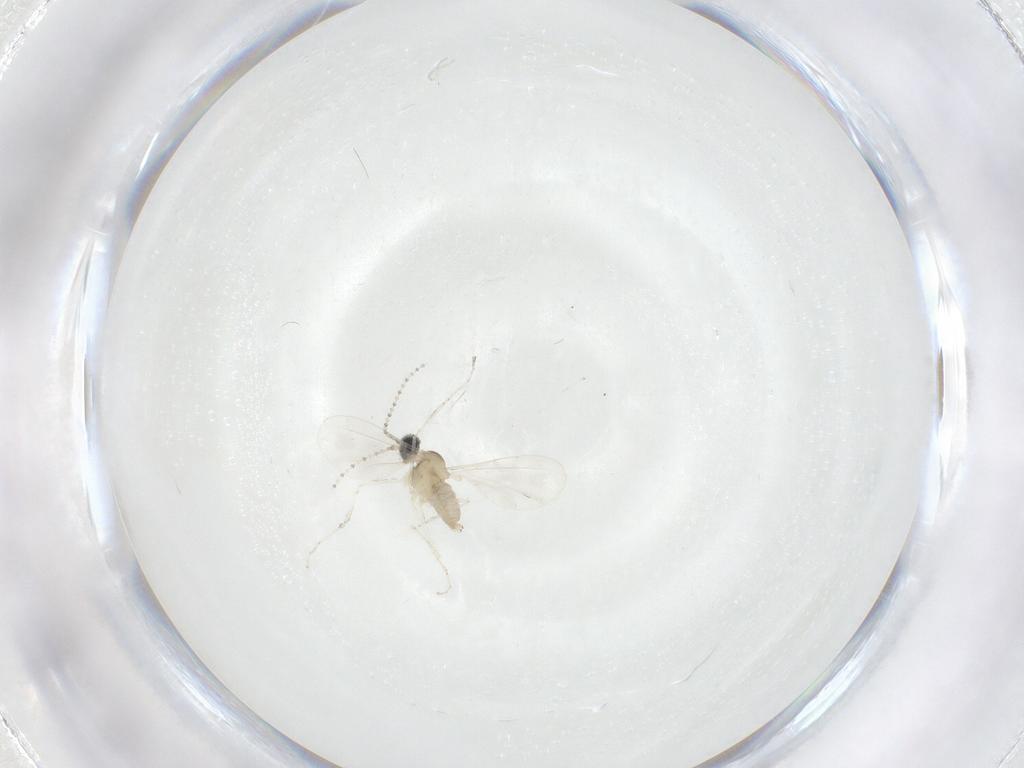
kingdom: Animalia
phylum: Arthropoda
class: Insecta
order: Diptera
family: Cecidomyiidae
